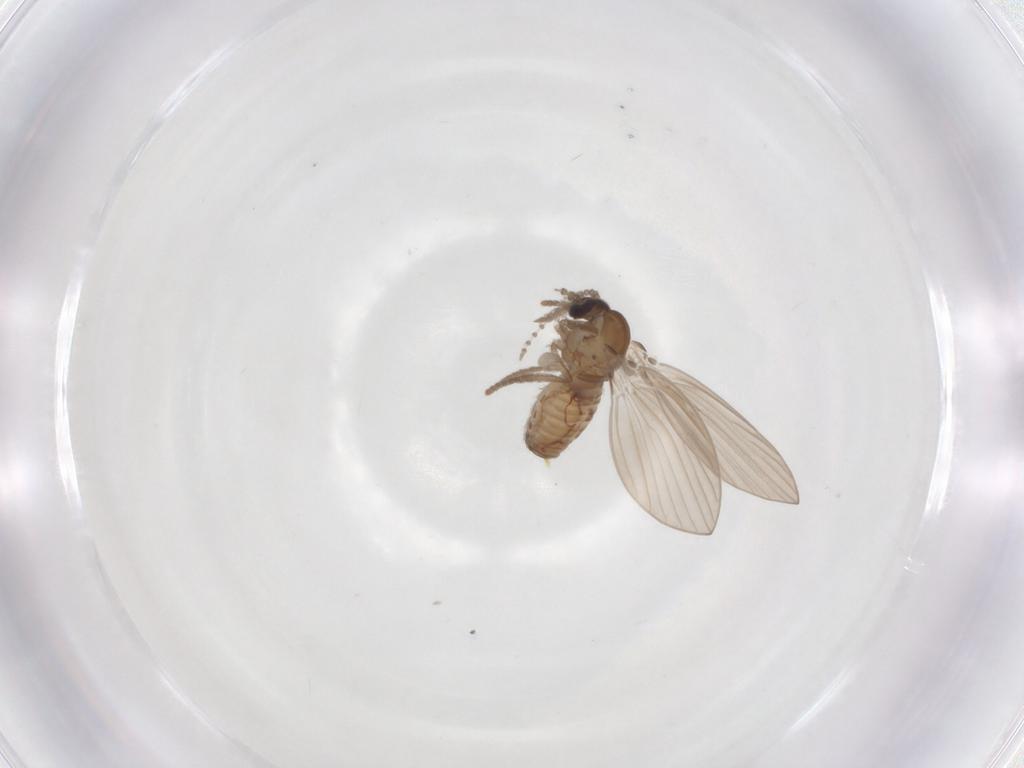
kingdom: Animalia
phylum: Arthropoda
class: Insecta
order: Diptera
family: Psychodidae
